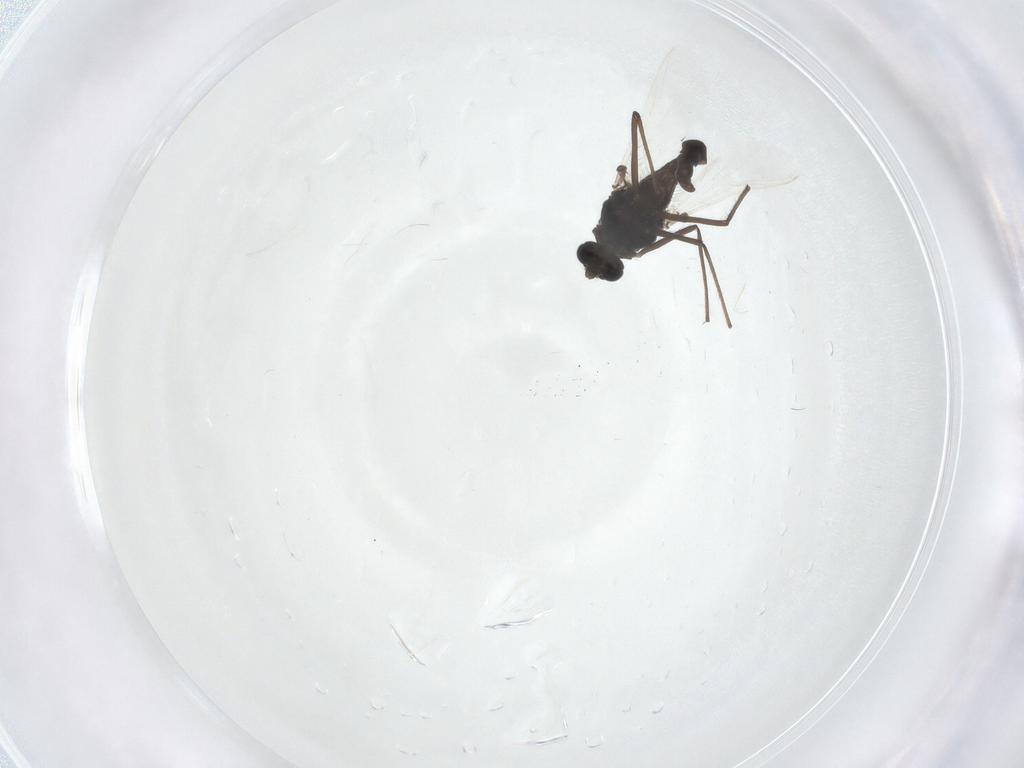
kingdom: Animalia
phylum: Arthropoda
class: Insecta
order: Diptera
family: Chironomidae
